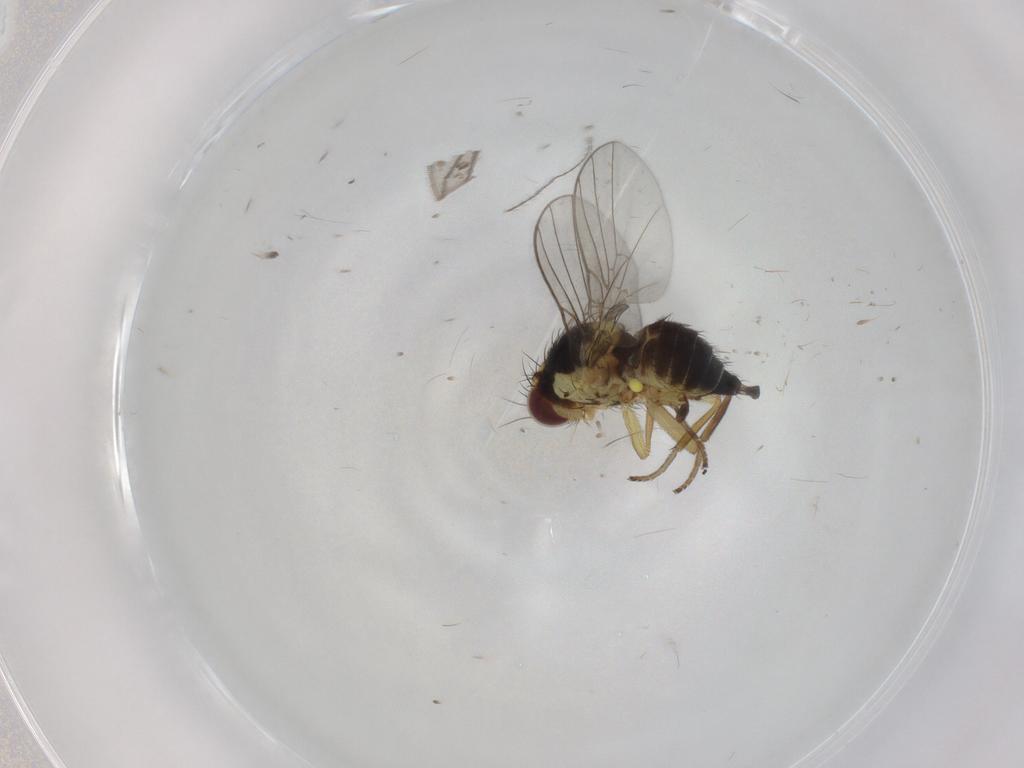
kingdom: Animalia
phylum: Arthropoda
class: Insecta
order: Diptera
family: Agromyzidae
